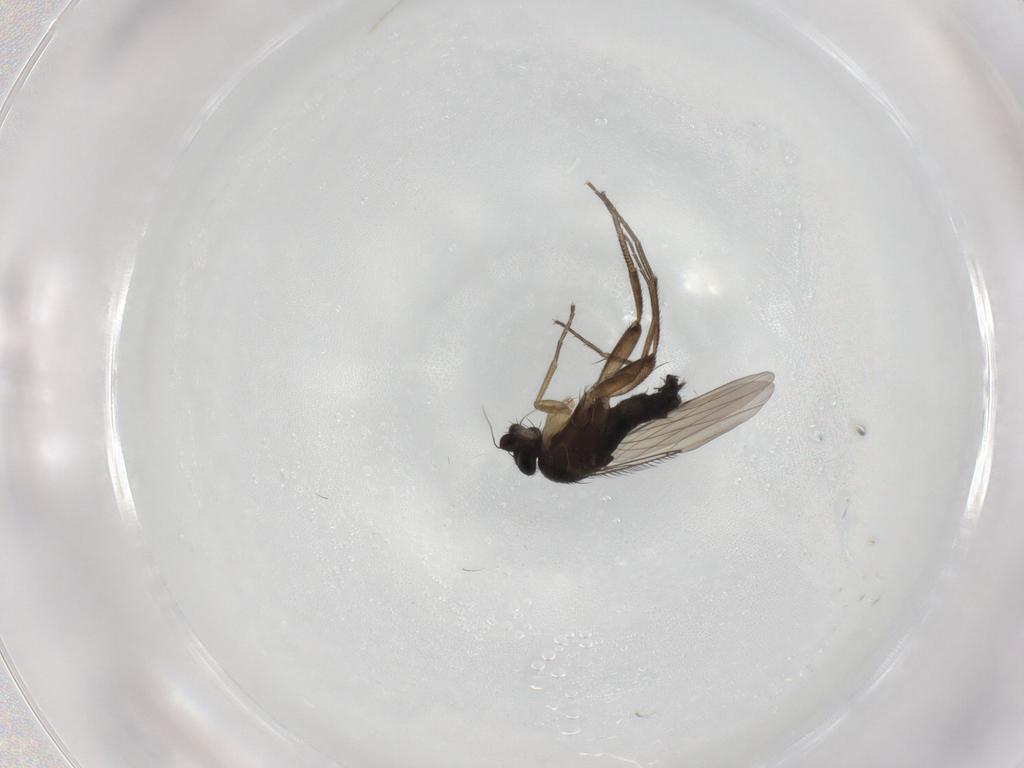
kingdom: Animalia
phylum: Arthropoda
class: Insecta
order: Diptera
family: Phoridae
